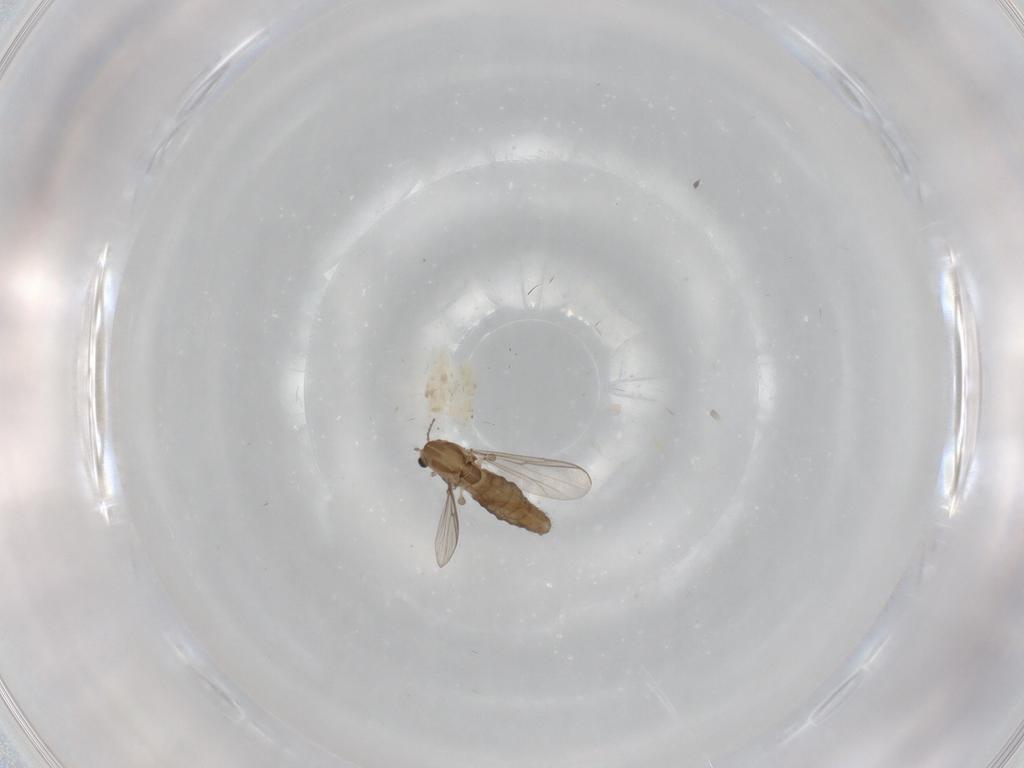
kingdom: Animalia
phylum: Arthropoda
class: Insecta
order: Diptera
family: Chironomidae
